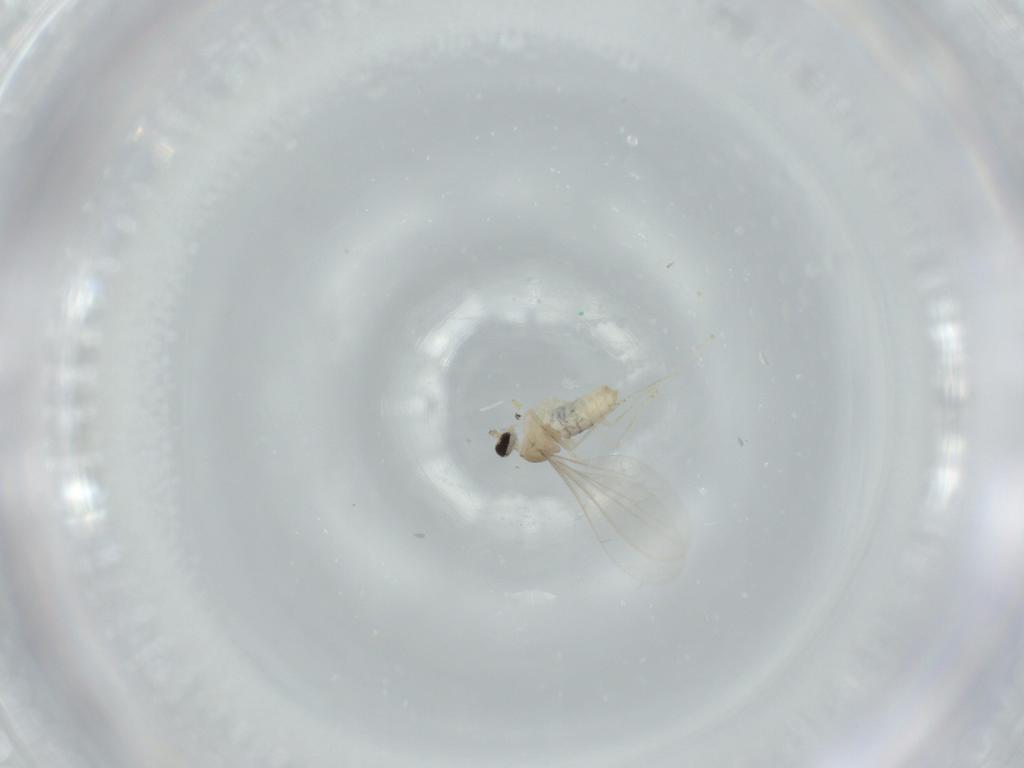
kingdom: Animalia
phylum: Arthropoda
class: Insecta
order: Diptera
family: Cecidomyiidae
